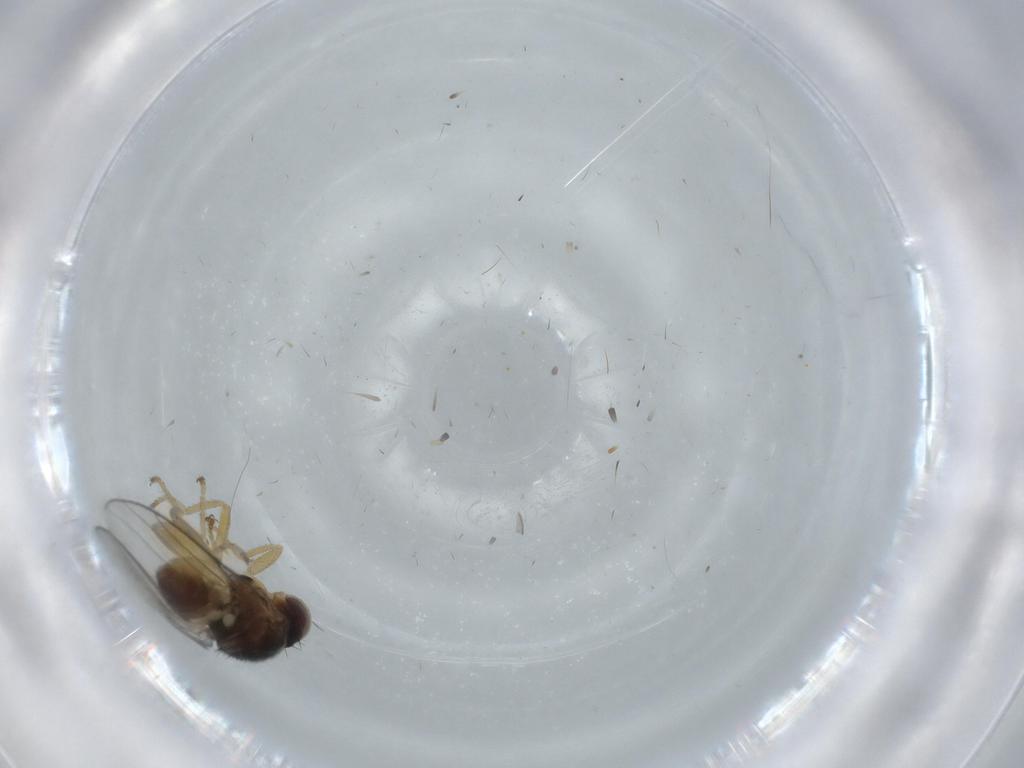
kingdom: Animalia
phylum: Arthropoda
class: Insecta
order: Diptera
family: Chloropidae
